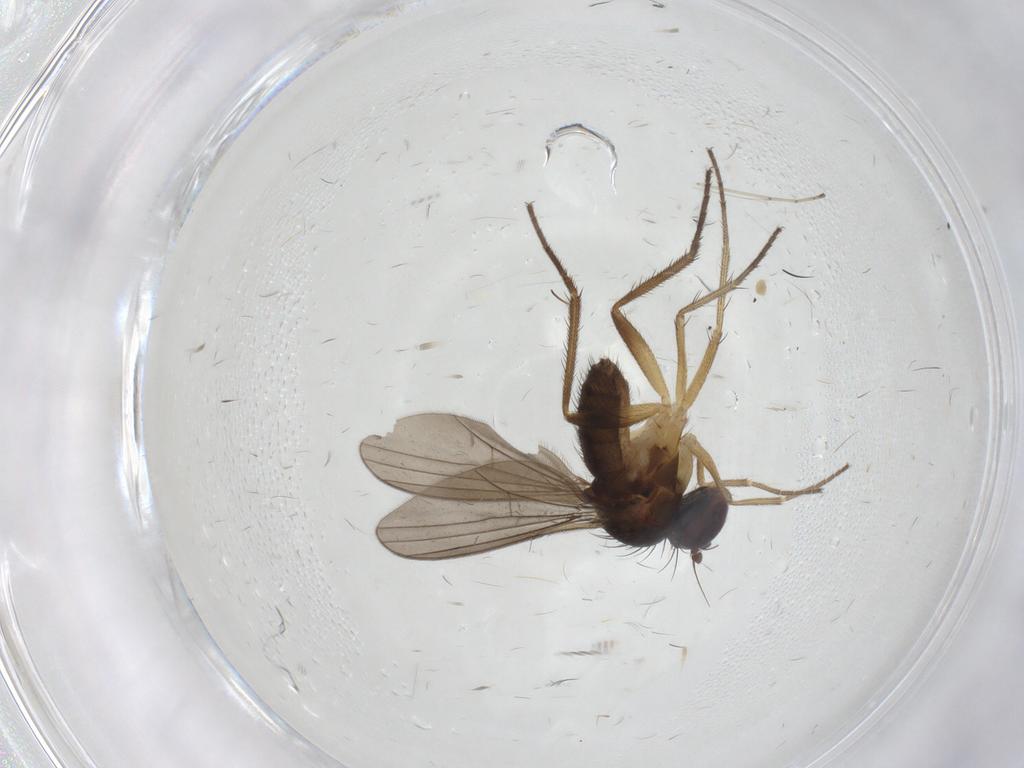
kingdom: Animalia
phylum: Arthropoda
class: Insecta
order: Diptera
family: Dolichopodidae
